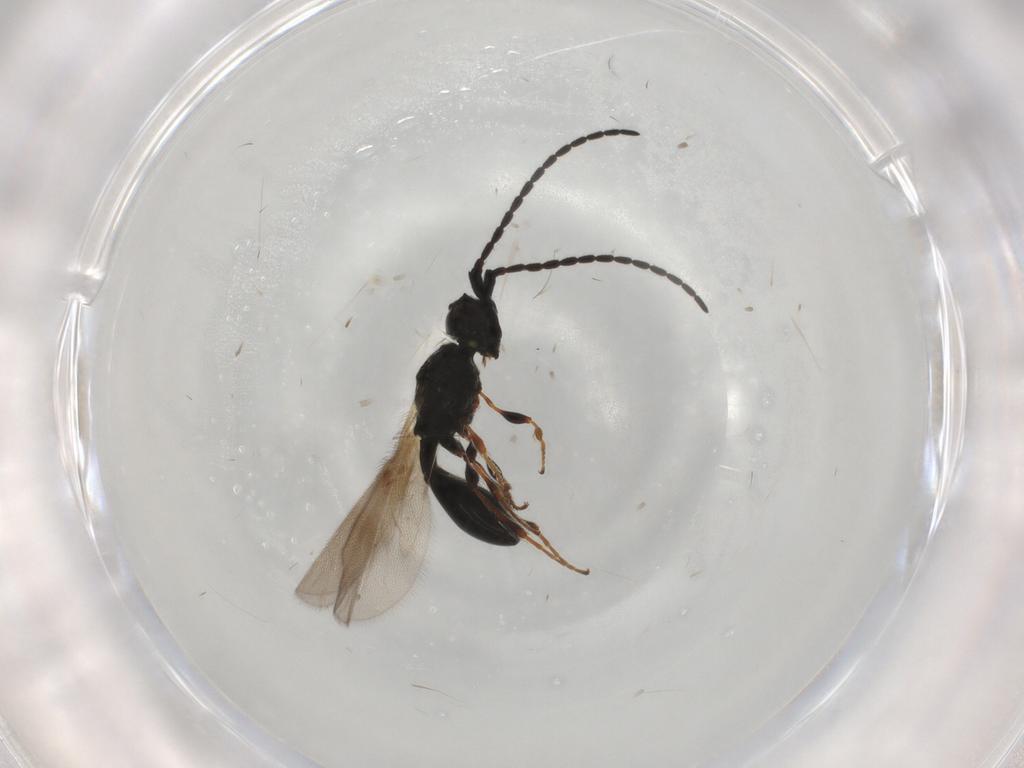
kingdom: Animalia
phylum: Arthropoda
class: Insecta
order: Hymenoptera
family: Diapriidae
